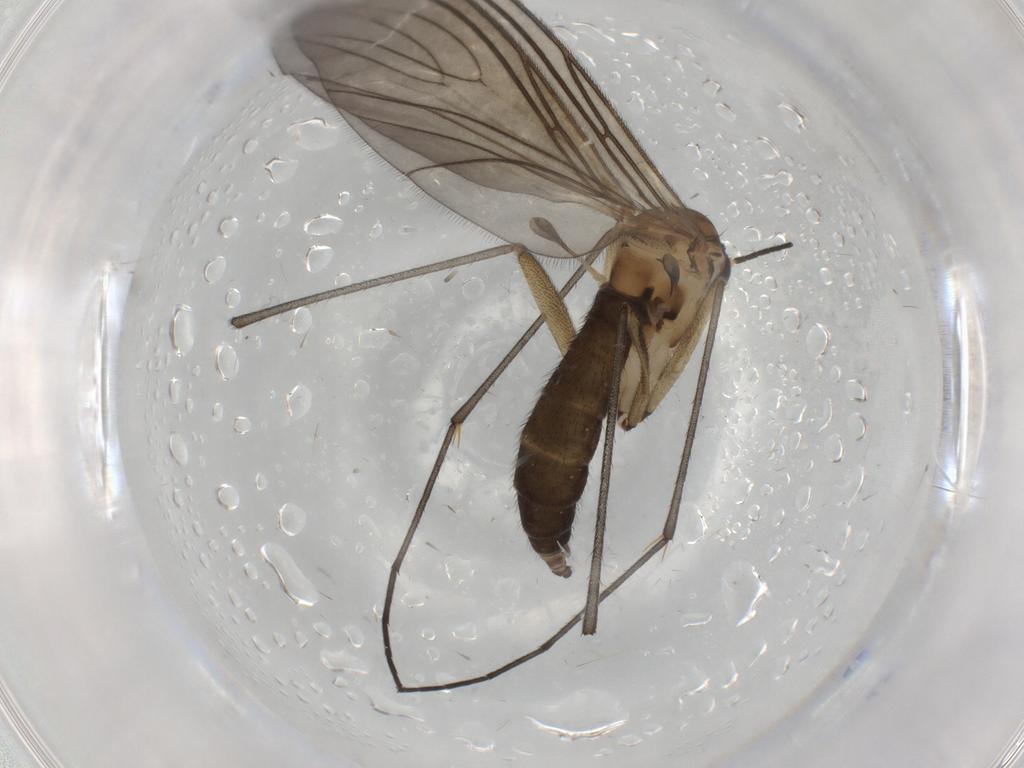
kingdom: Animalia
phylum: Arthropoda
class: Insecta
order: Diptera
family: Sciaridae
